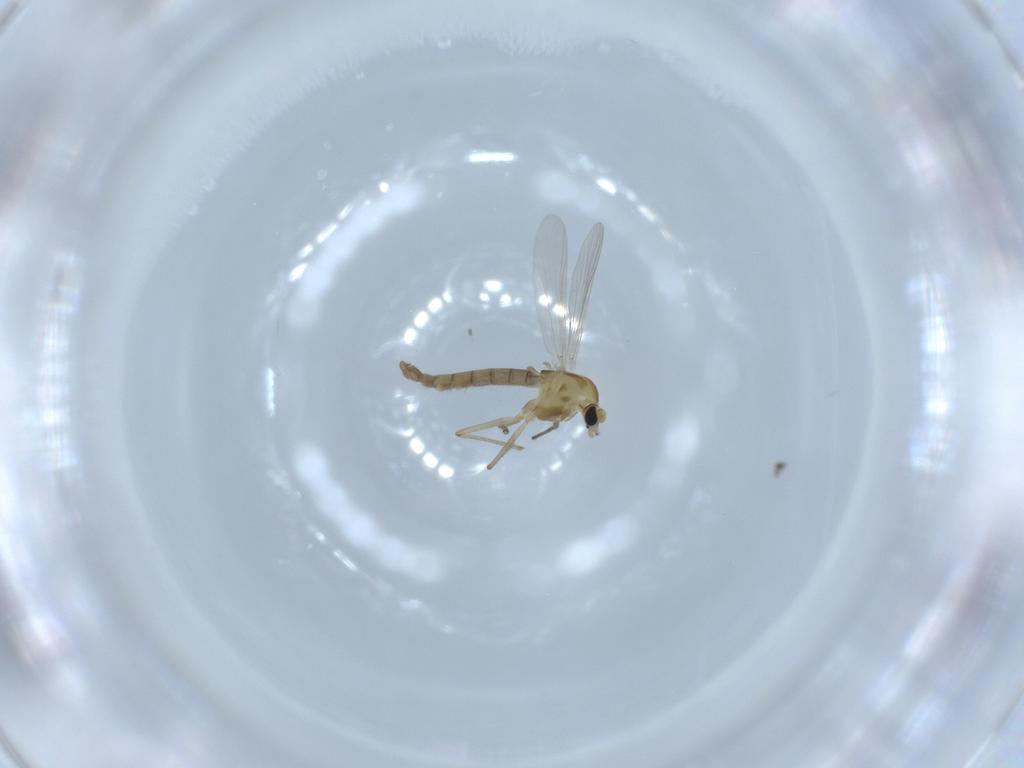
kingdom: Animalia
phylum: Arthropoda
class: Insecta
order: Diptera
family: Chironomidae
